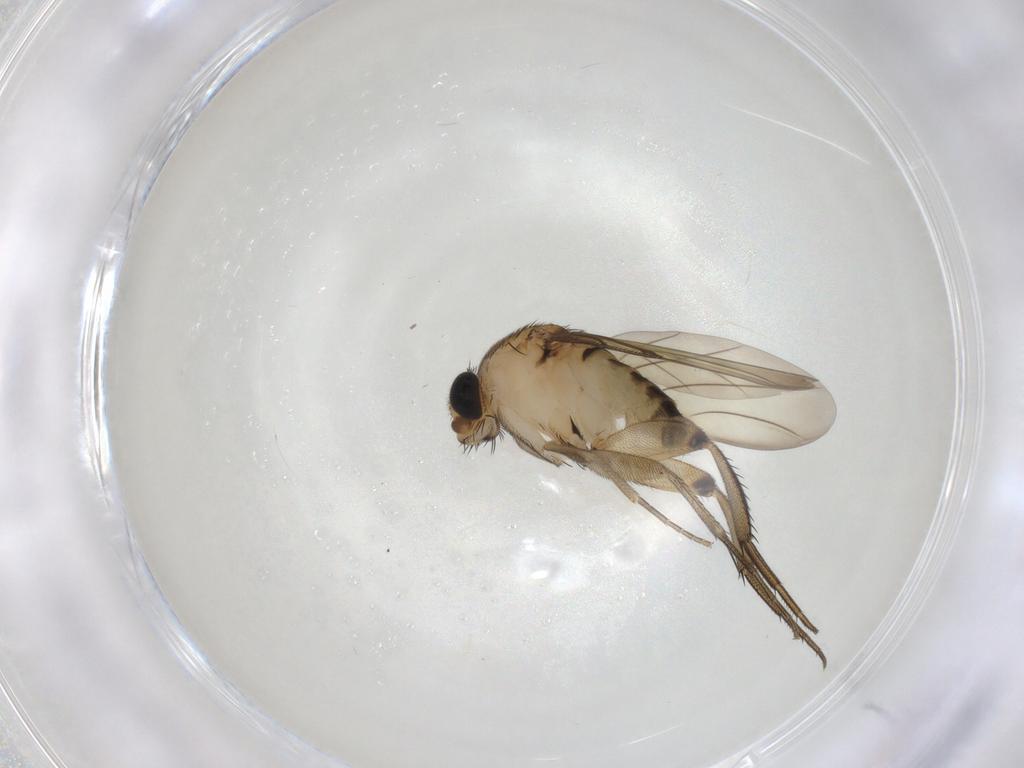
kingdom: Animalia
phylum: Arthropoda
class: Insecta
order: Diptera
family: Phoridae
